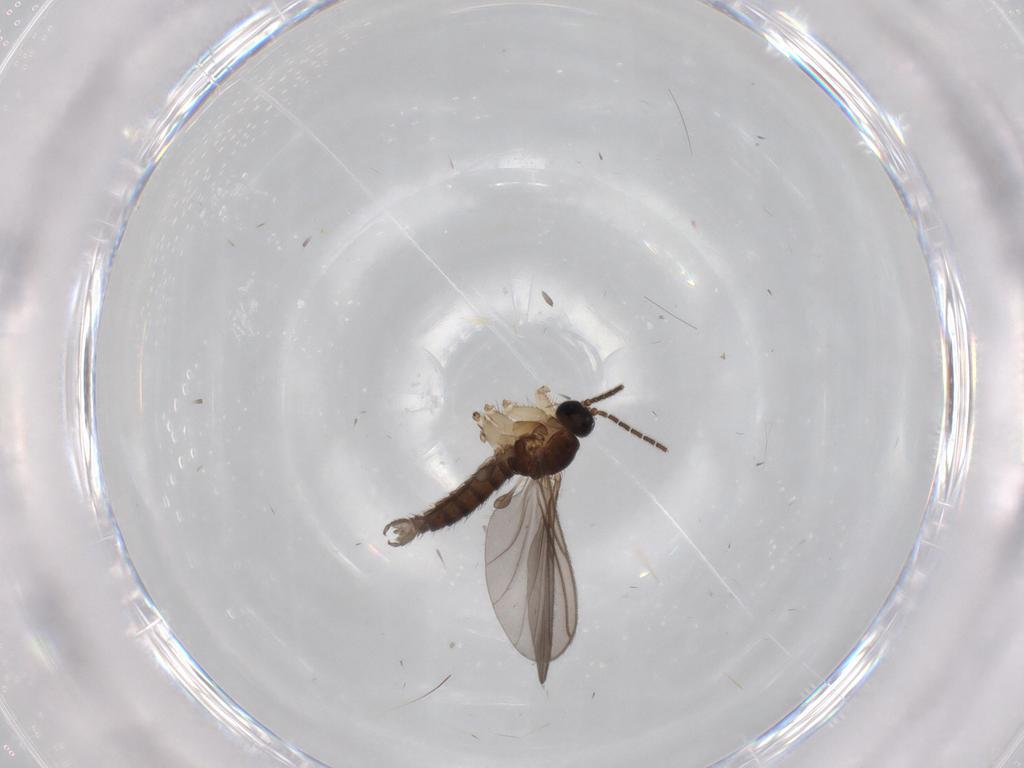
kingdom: Animalia
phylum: Arthropoda
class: Insecta
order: Diptera
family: Sciaridae
